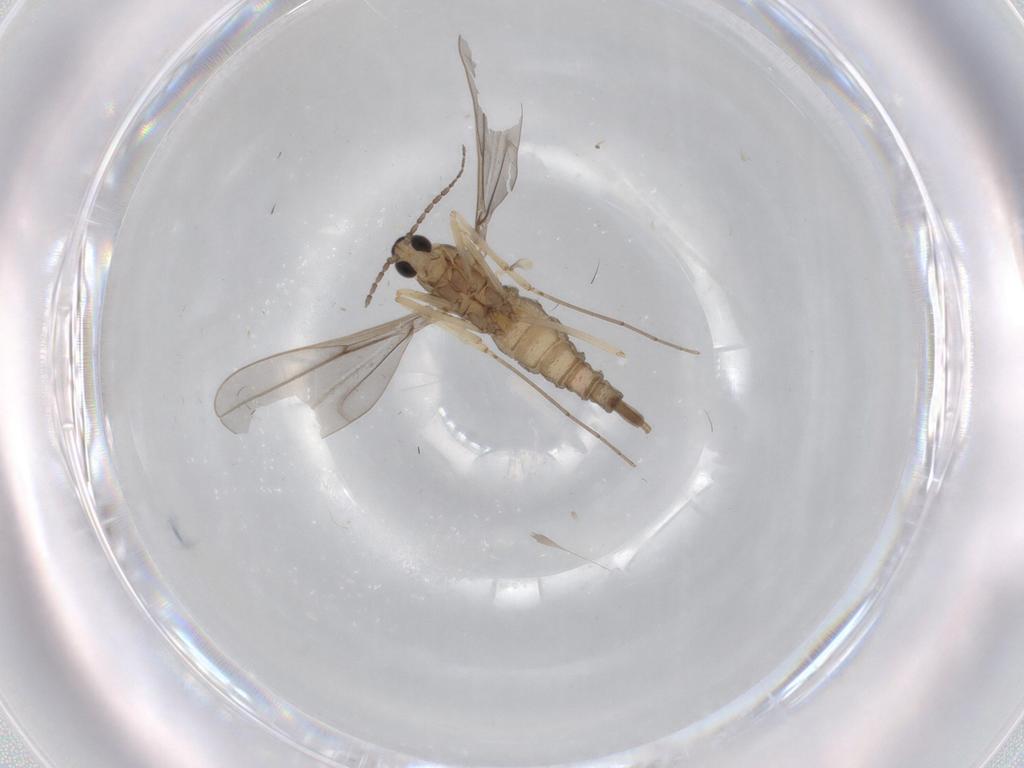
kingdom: Animalia
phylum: Arthropoda
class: Insecta
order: Diptera
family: Cecidomyiidae
